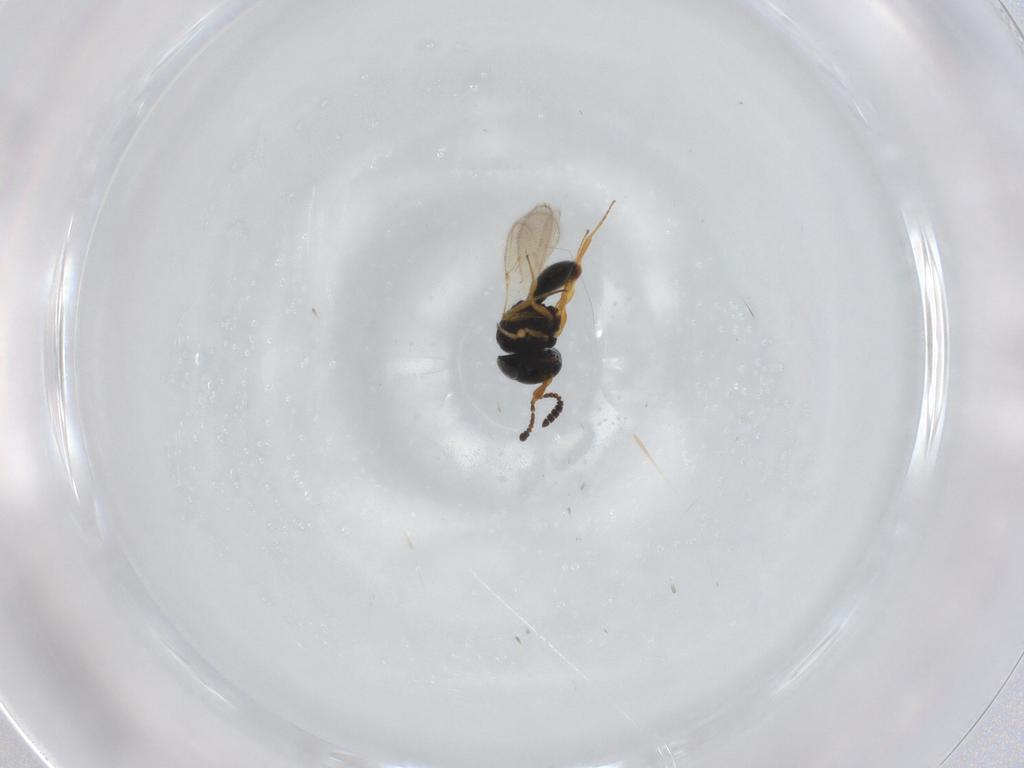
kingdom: Animalia
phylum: Arthropoda
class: Insecta
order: Hymenoptera
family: Scelionidae
